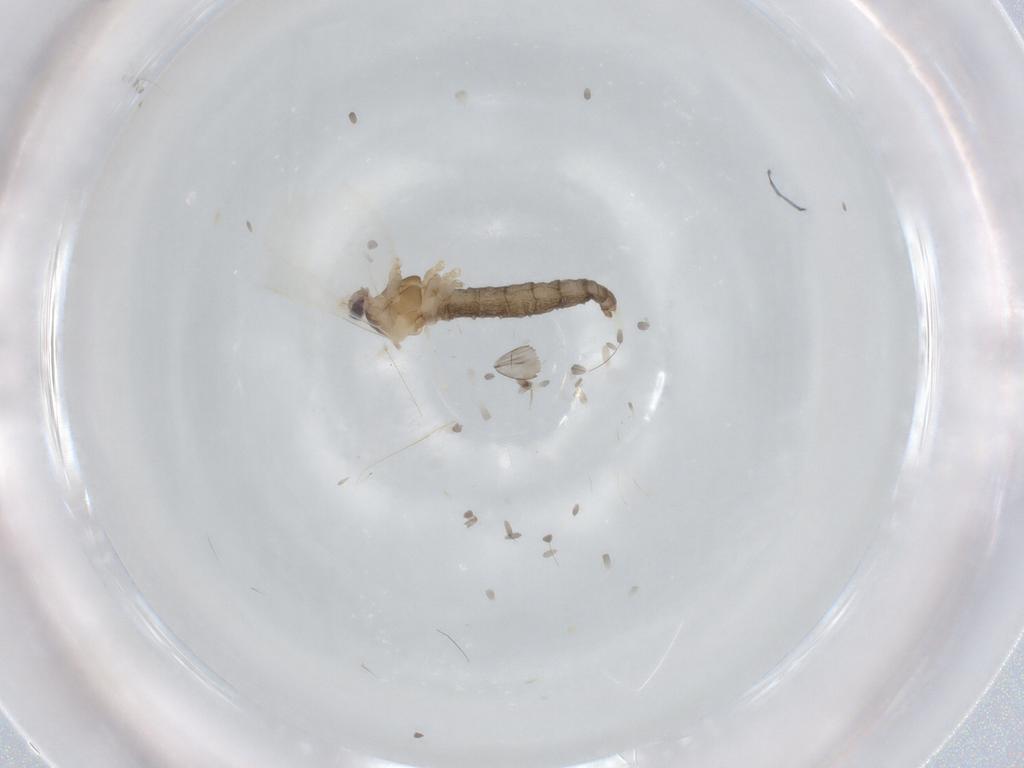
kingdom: Animalia
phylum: Arthropoda
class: Insecta
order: Diptera
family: Cecidomyiidae
